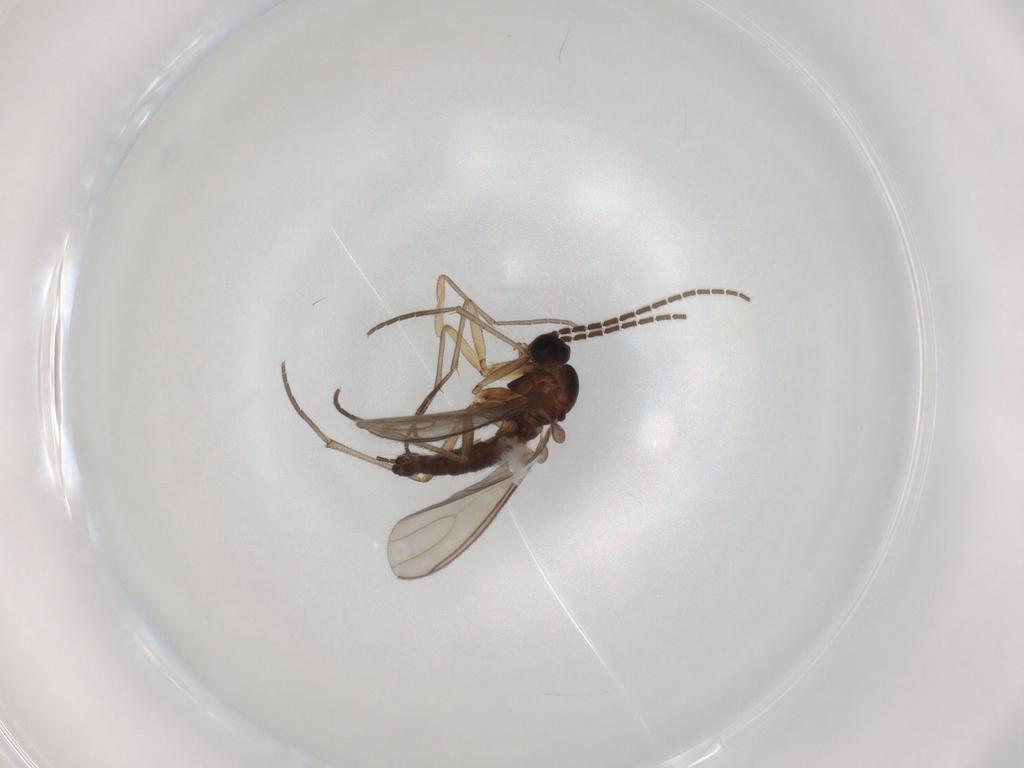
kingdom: Animalia
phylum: Arthropoda
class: Insecta
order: Diptera
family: Sciaridae
